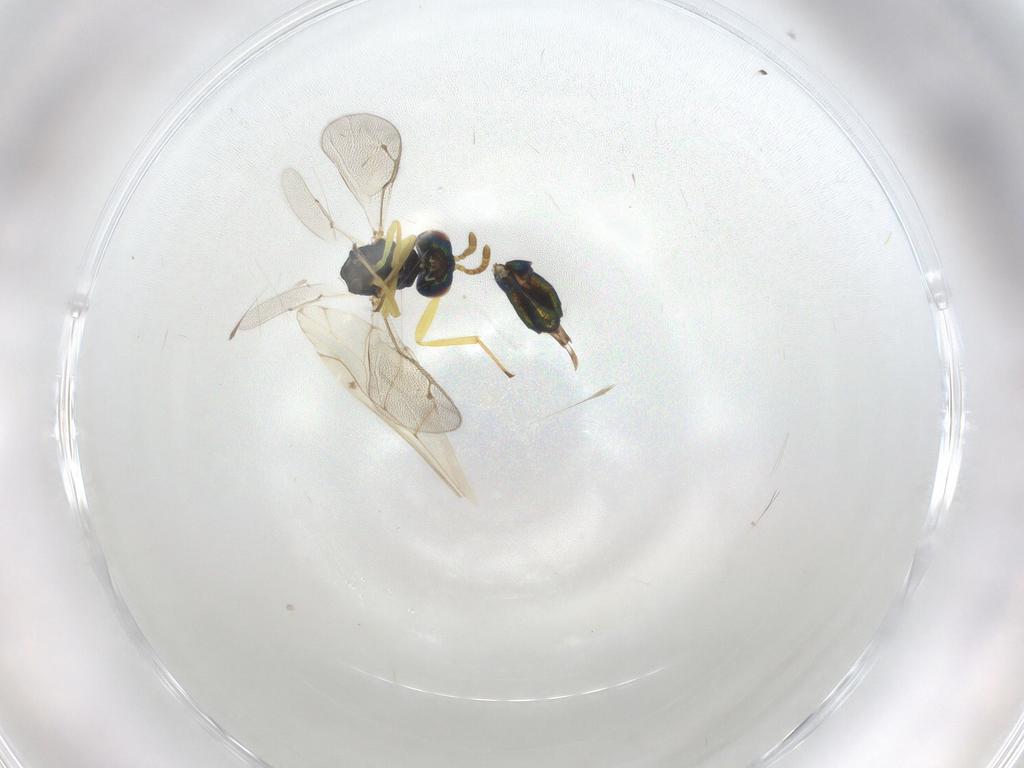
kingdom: Animalia
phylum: Arthropoda
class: Insecta
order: Hymenoptera
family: Pteromalidae
